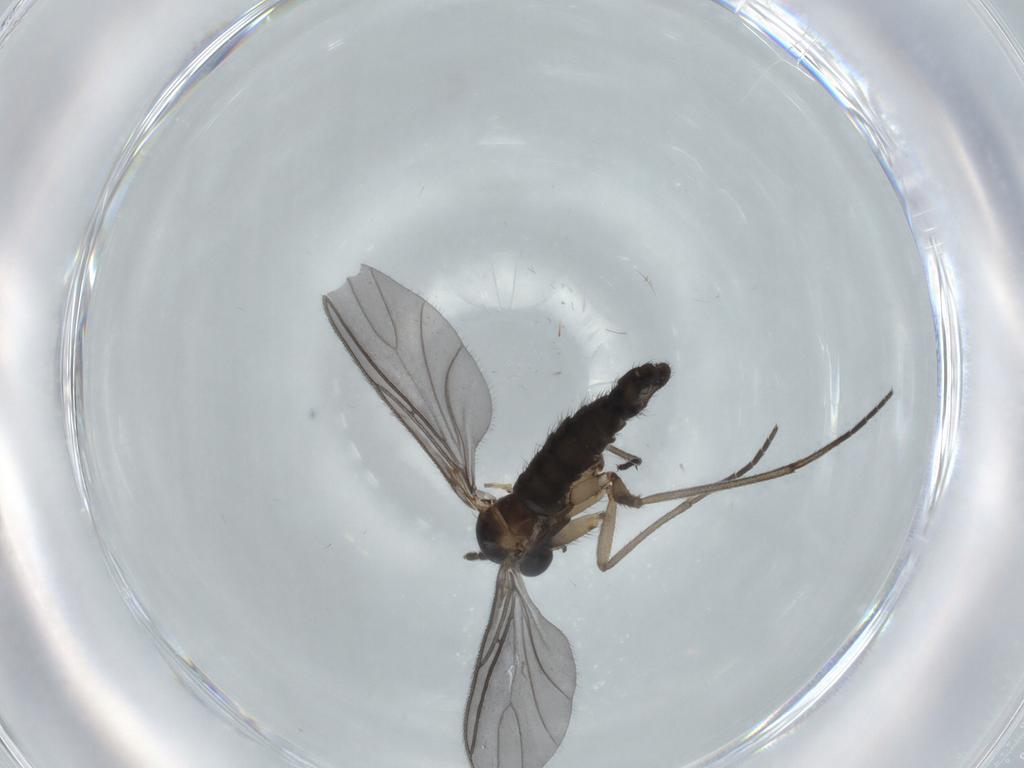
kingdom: Animalia
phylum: Arthropoda
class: Insecta
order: Diptera
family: Sciaridae
